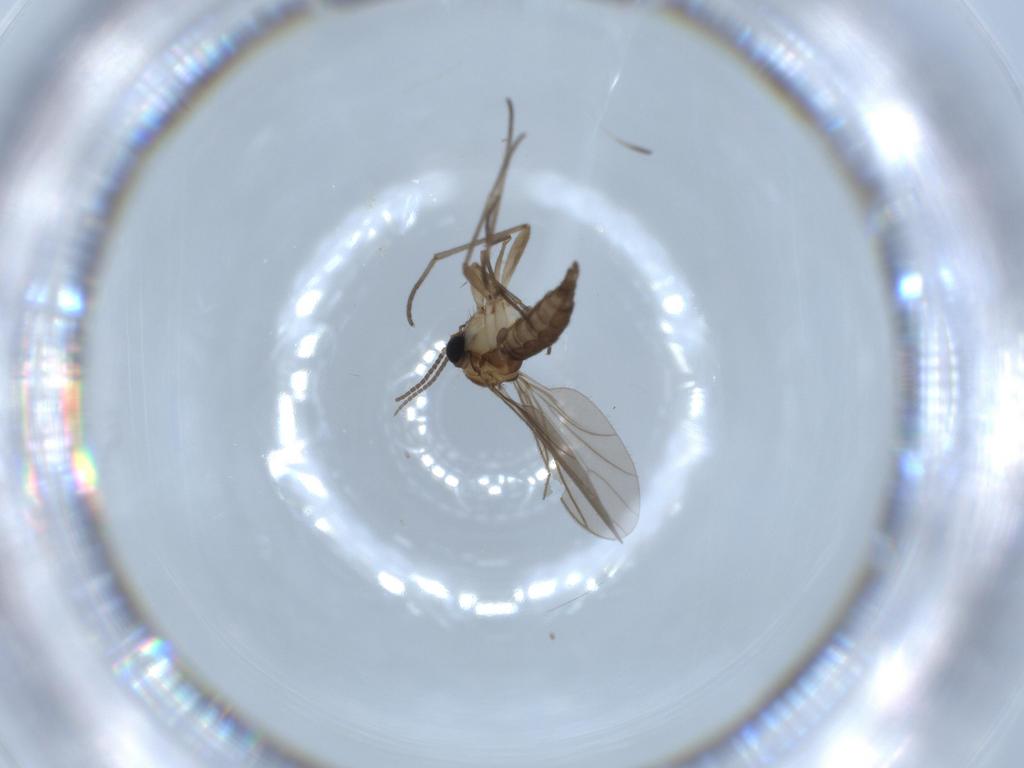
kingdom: Animalia
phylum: Arthropoda
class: Insecta
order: Diptera
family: Sciaridae
